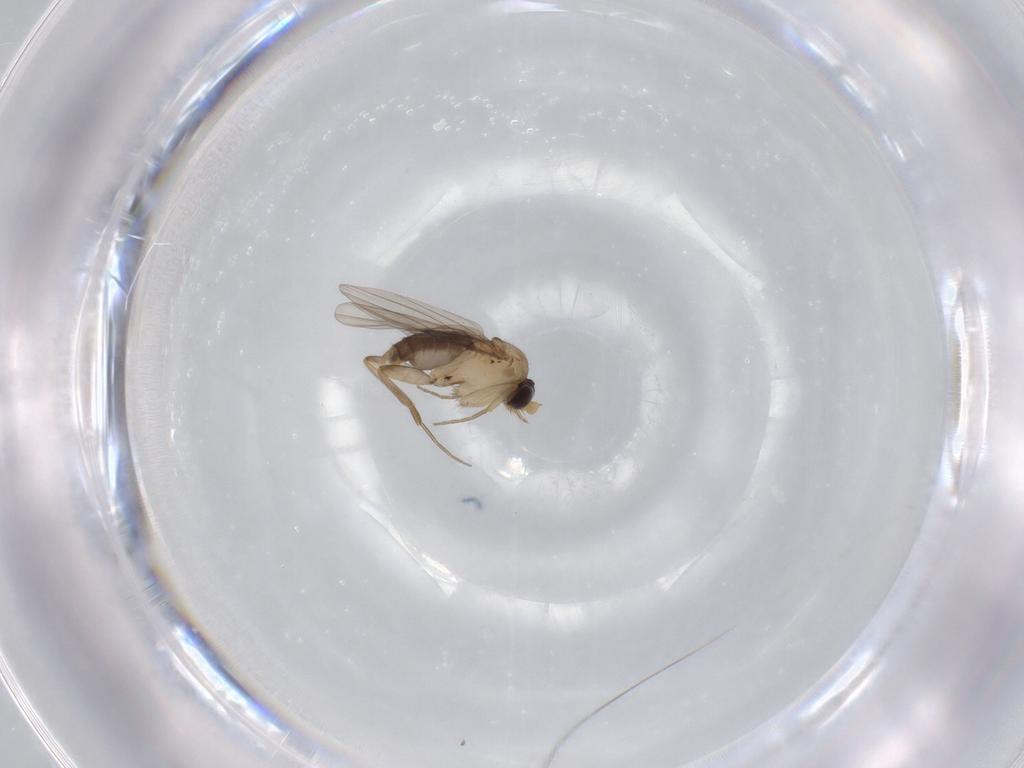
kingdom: Animalia
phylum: Arthropoda
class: Insecta
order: Diptera
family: Phoridae
